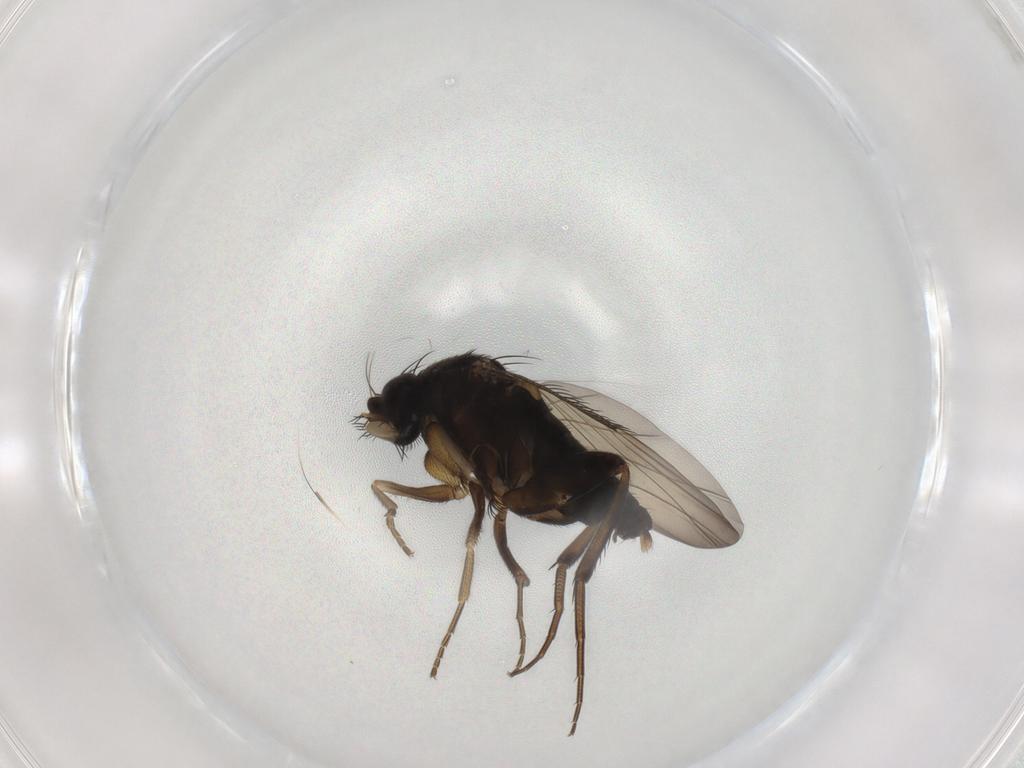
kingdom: Animalia
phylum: Arthropoda
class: Insecta
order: Diptera
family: Phoridae
